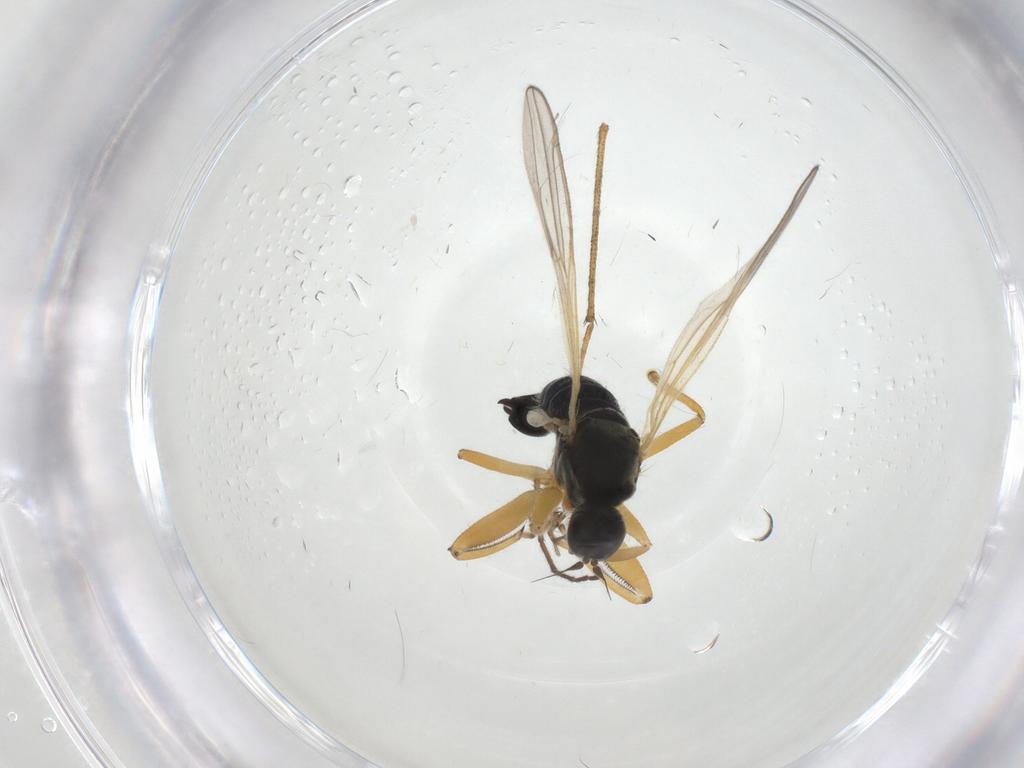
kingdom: Animalia
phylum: Arthropoda
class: Insecta
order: Diptera
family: Hybotidae
